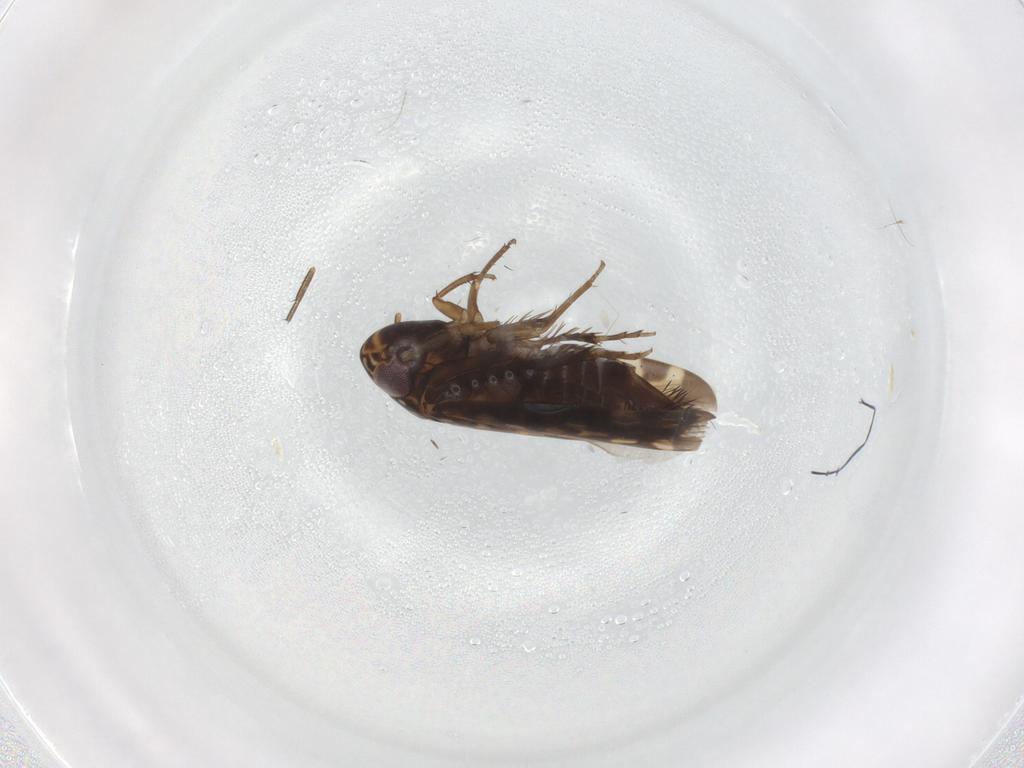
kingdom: Animalia
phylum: Arthropoda
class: Insecta
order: Hemiptera
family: Cicadellidae
